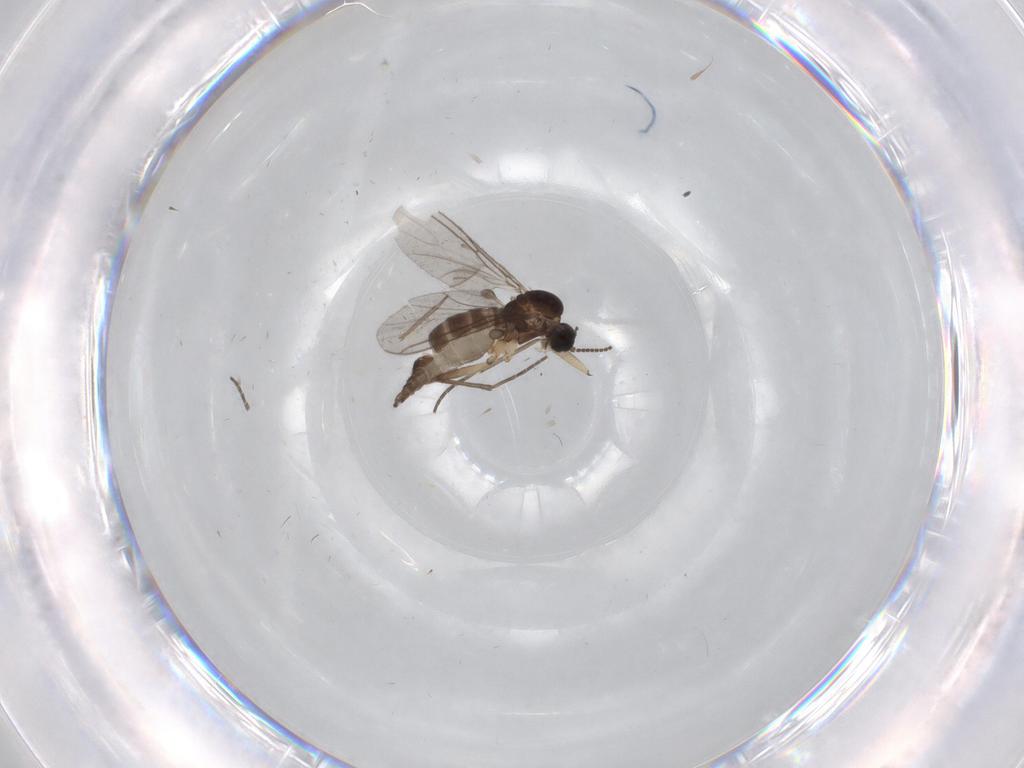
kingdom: Animalia
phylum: Arthropoda
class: Insecta
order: Diptera
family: Sciaridae
